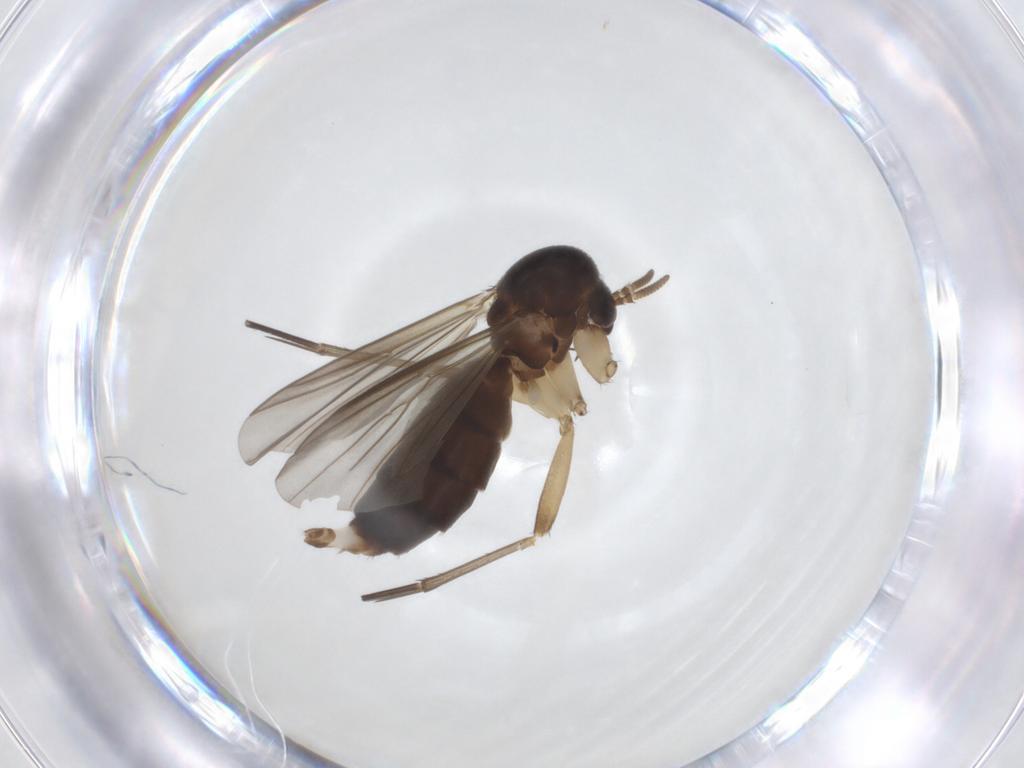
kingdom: Animalia
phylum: Arthropoda
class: Insecta
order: Diptera
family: Mycetophilidae
